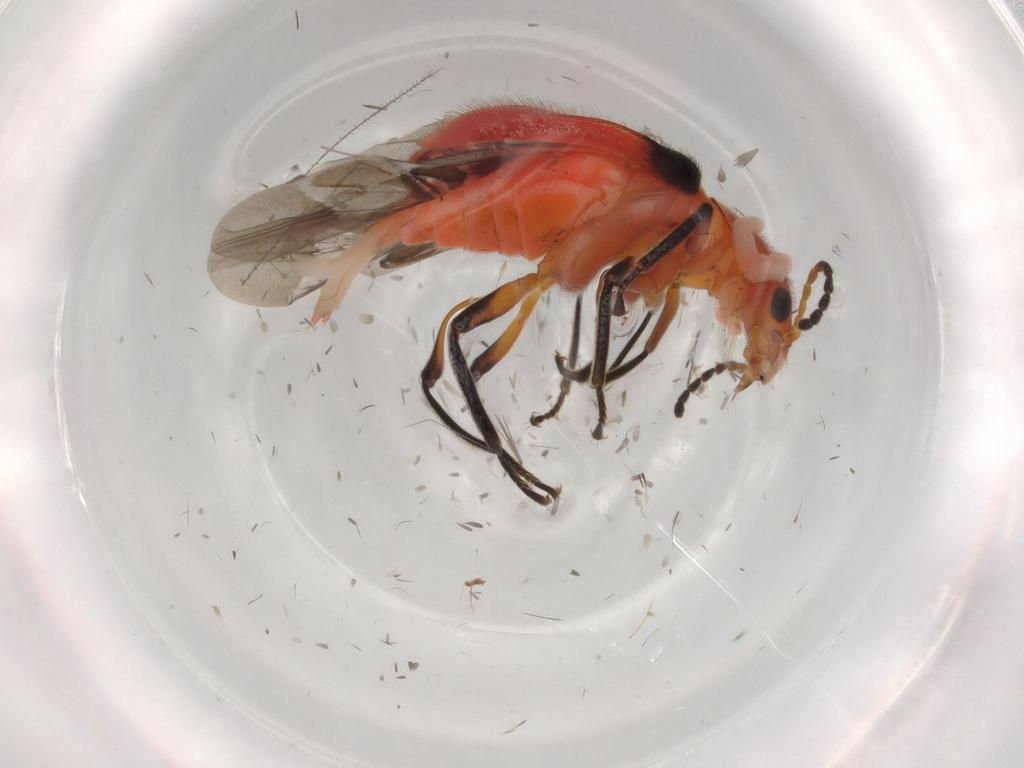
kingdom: Animalia
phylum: Arthropoda
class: Insecta
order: Coleoptera
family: Melyridae
